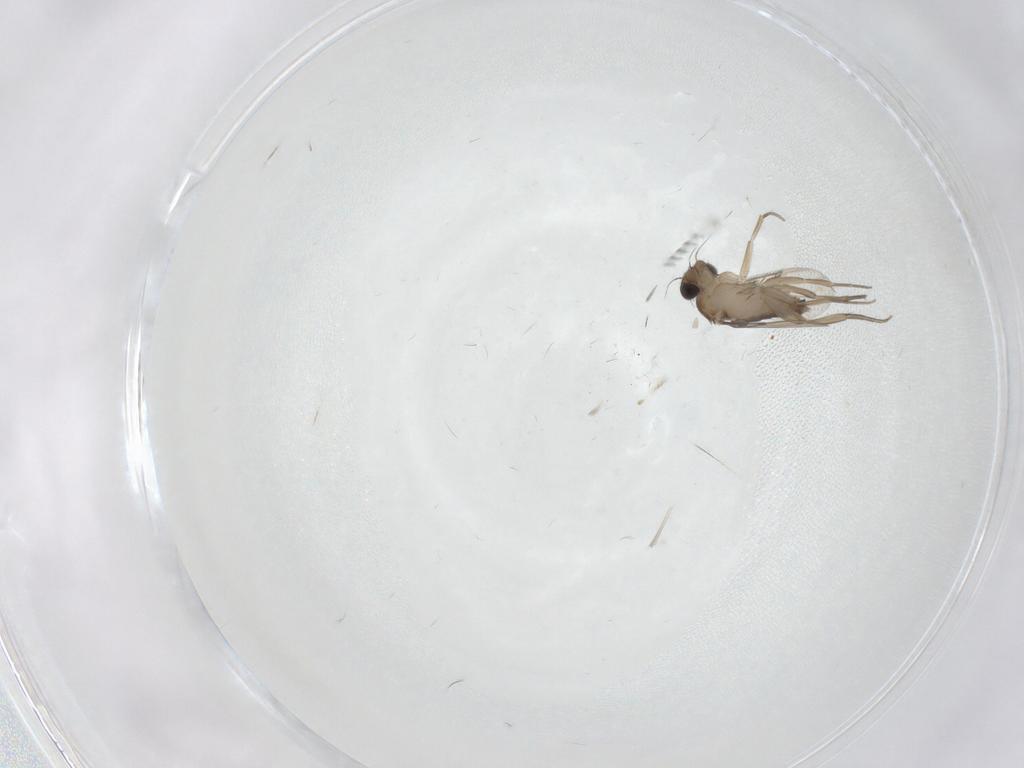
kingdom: Animalia
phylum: Arthropoda
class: Insecta
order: Diptera
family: Phoridae
